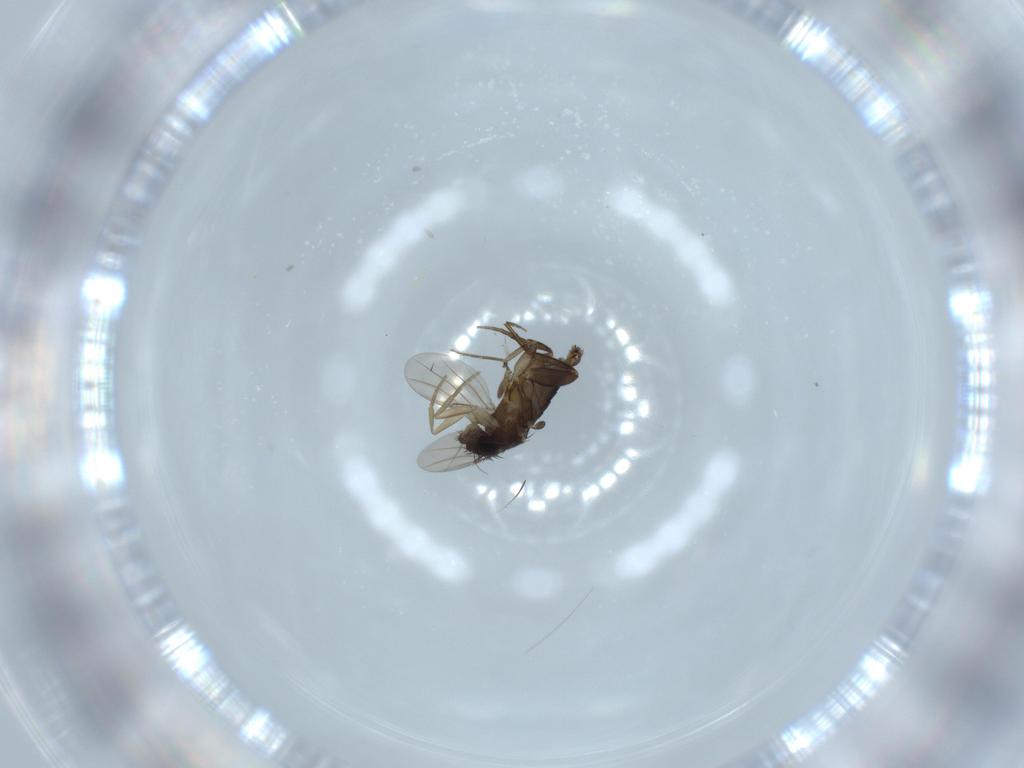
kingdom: Animalia
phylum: Arthropoda
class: Insecta
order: Diptera
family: Phoridae
